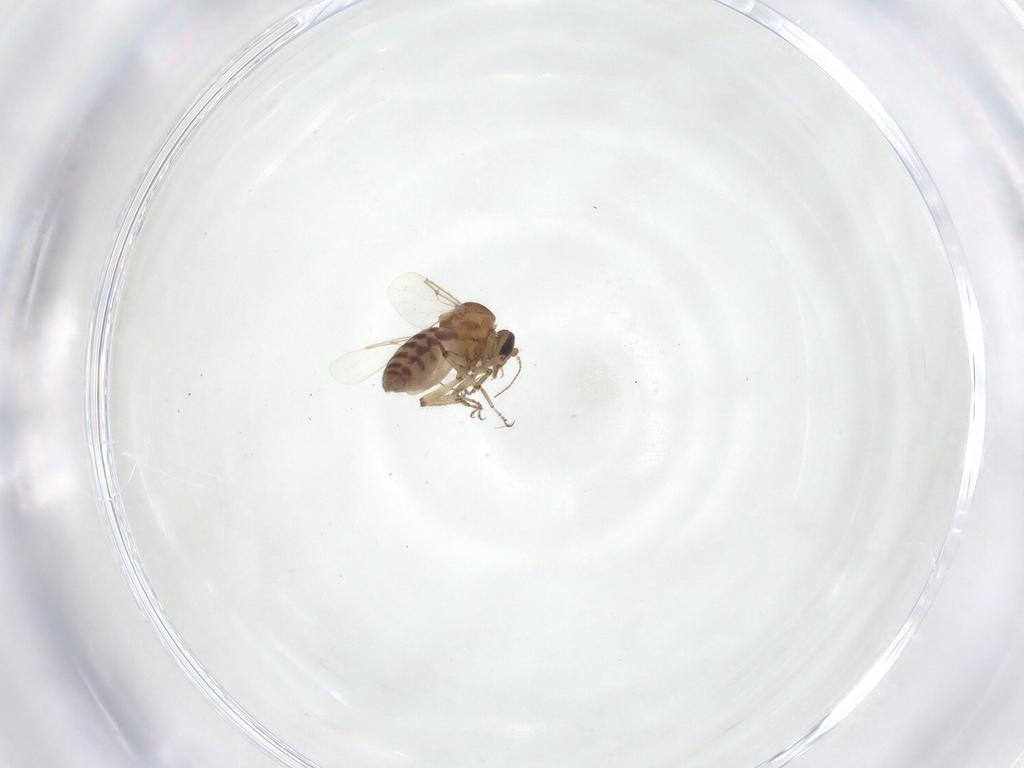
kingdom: Animalia
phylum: Arthropoda
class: Insecta
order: Diptera
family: Ceratopogonidae
